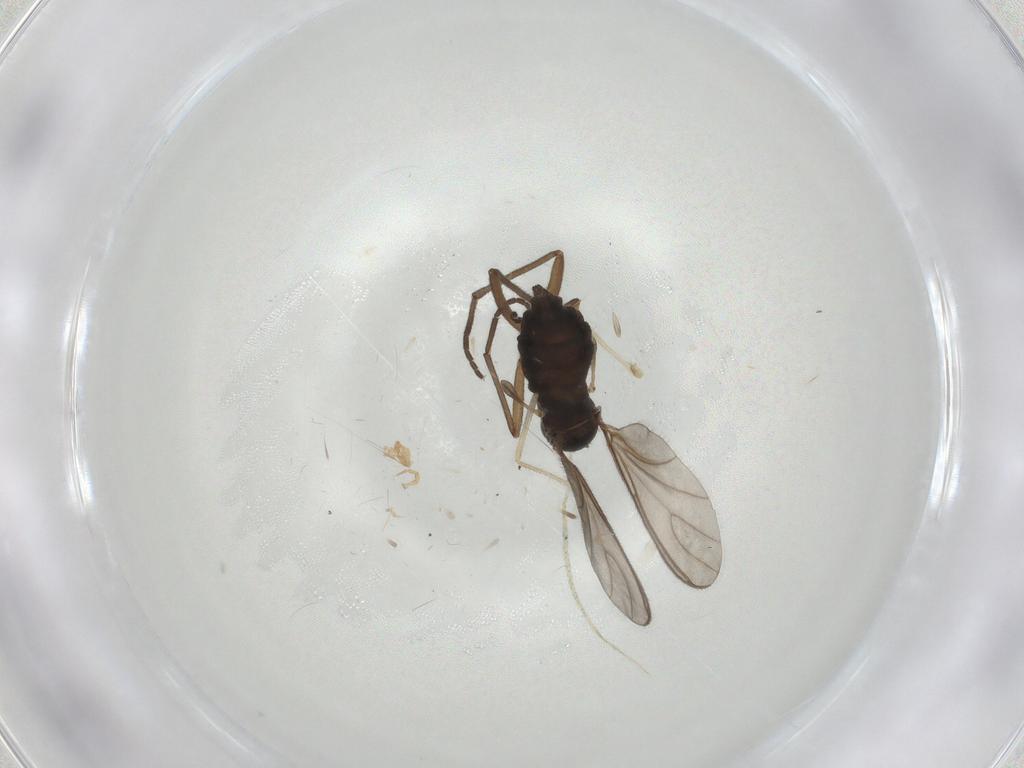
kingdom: Animalia
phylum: Arthropoda
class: Insecta
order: Diptera
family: Sciaridae
